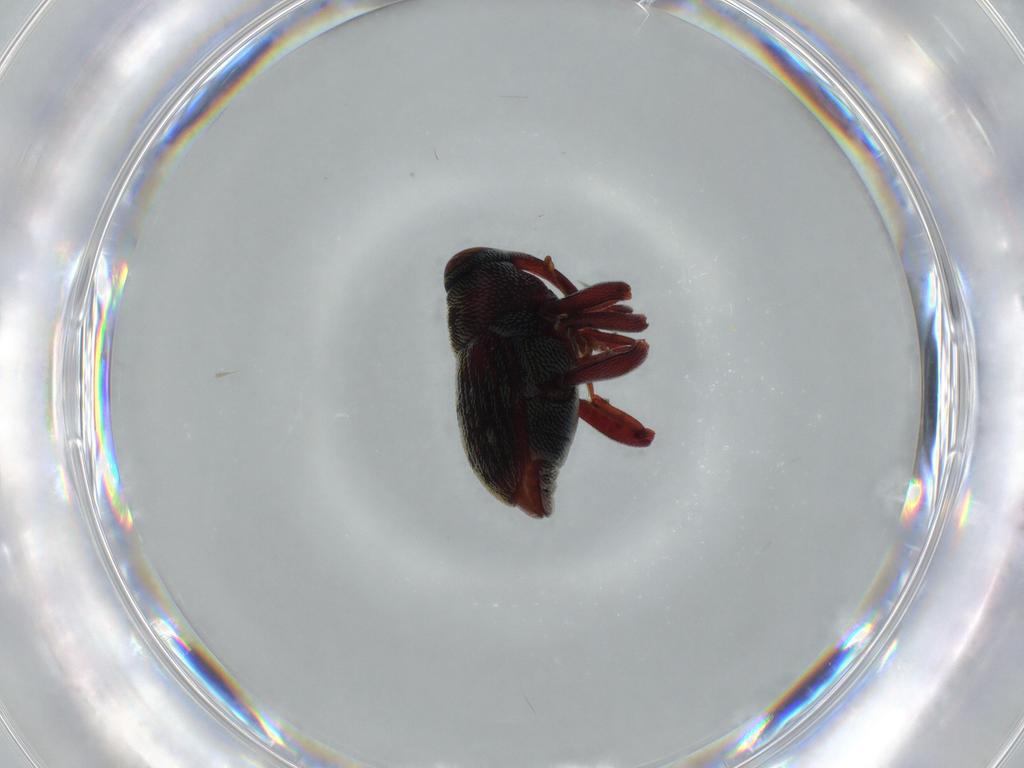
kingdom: Animalia
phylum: Arthropoda
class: Insecta
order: Coleoptera
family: Curculionidae
